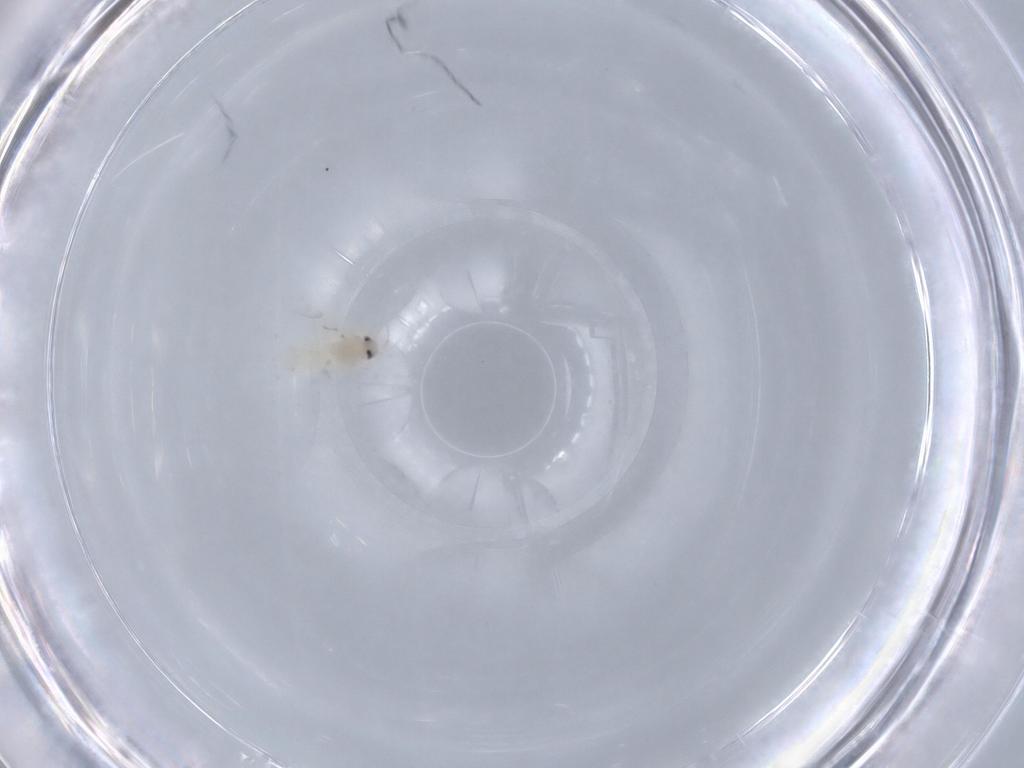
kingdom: Animalia
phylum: Arthropoda
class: Insecta
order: Hemiptera
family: Aleyrodidae
